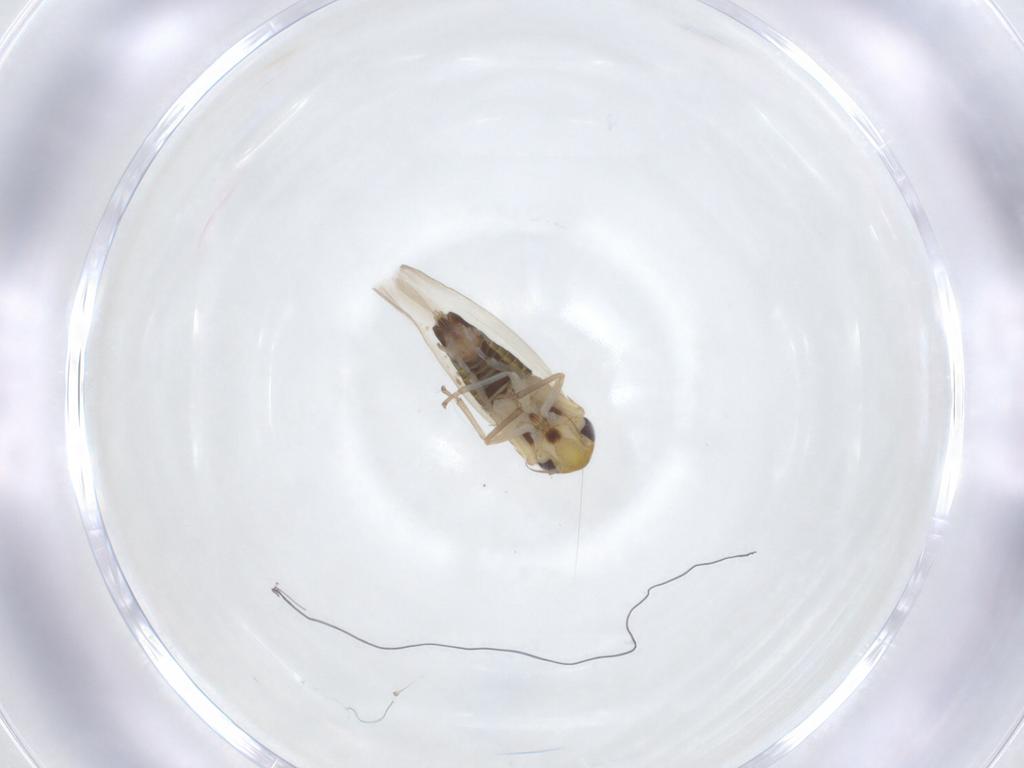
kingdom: Animalia
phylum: Arthropoda
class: Insecta
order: Hemiptera
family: Cicadellidae
